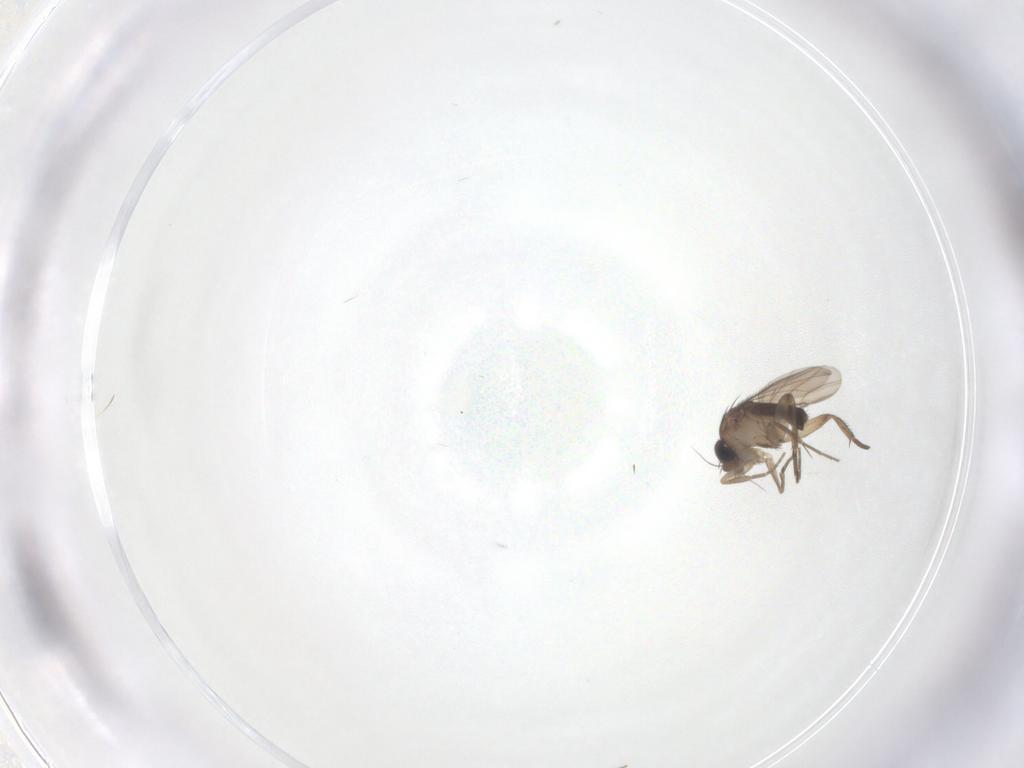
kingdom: Animalia
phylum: Arthropoda
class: Insecta
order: Diptera
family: Phoridae
